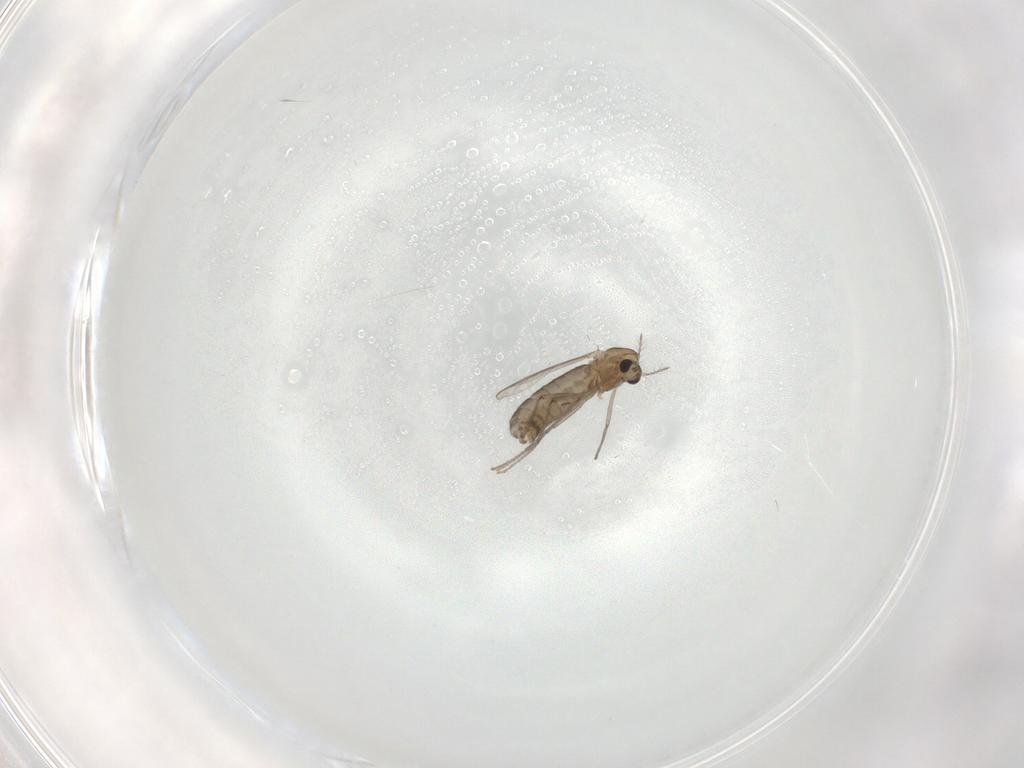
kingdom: Animalia
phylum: Arthropoda
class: Insecta
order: Diptera
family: Chironomidae
